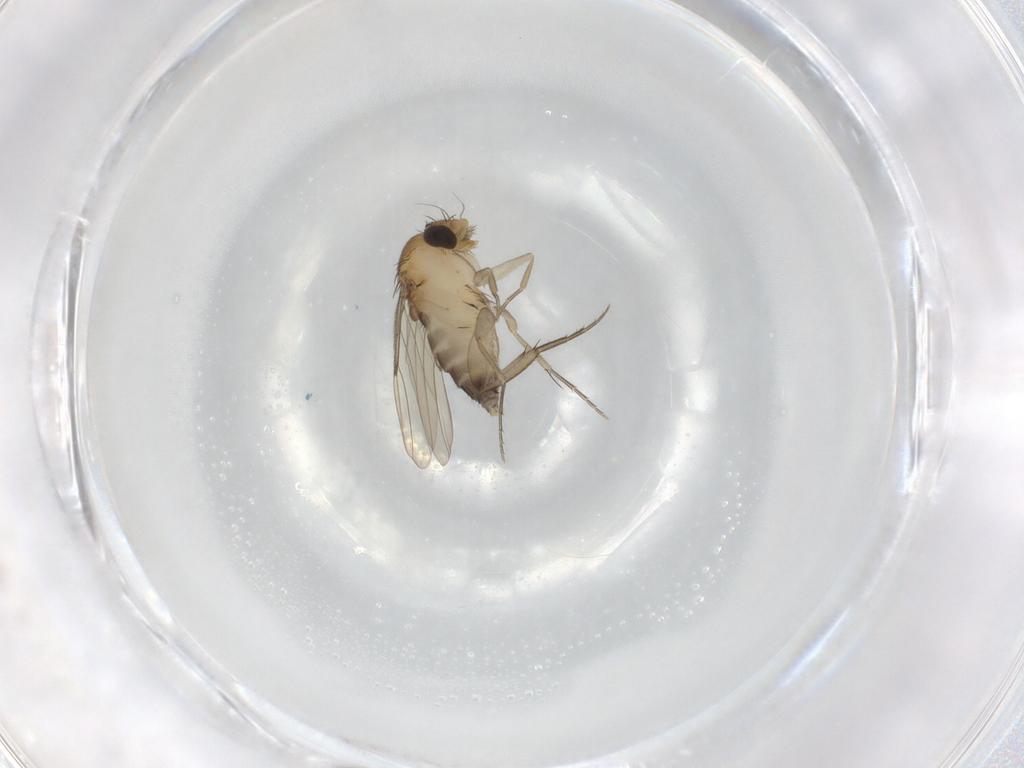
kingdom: Animalia
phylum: Arthropoda
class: Insecta
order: Diptera
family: Phoridae
